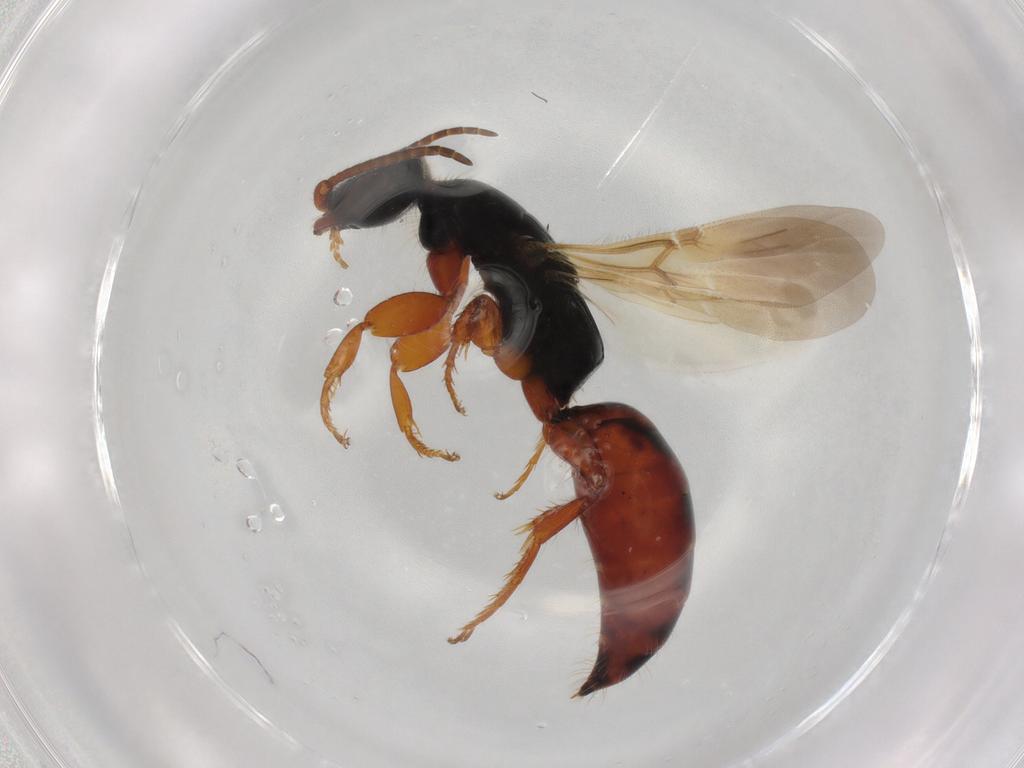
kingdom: Animalia
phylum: Arthropoda
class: Insecta
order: Hymenoptera
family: Bethylidae
